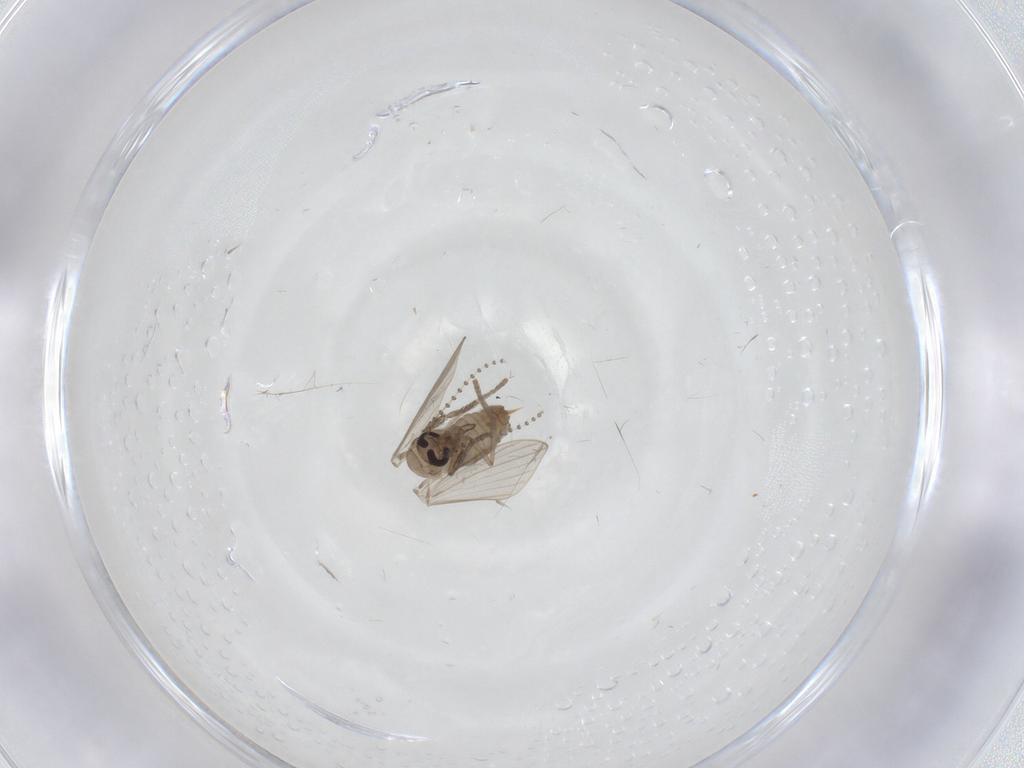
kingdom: Animalia
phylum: Arthropoda
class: Insecta
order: Diptera
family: Psychodidae
